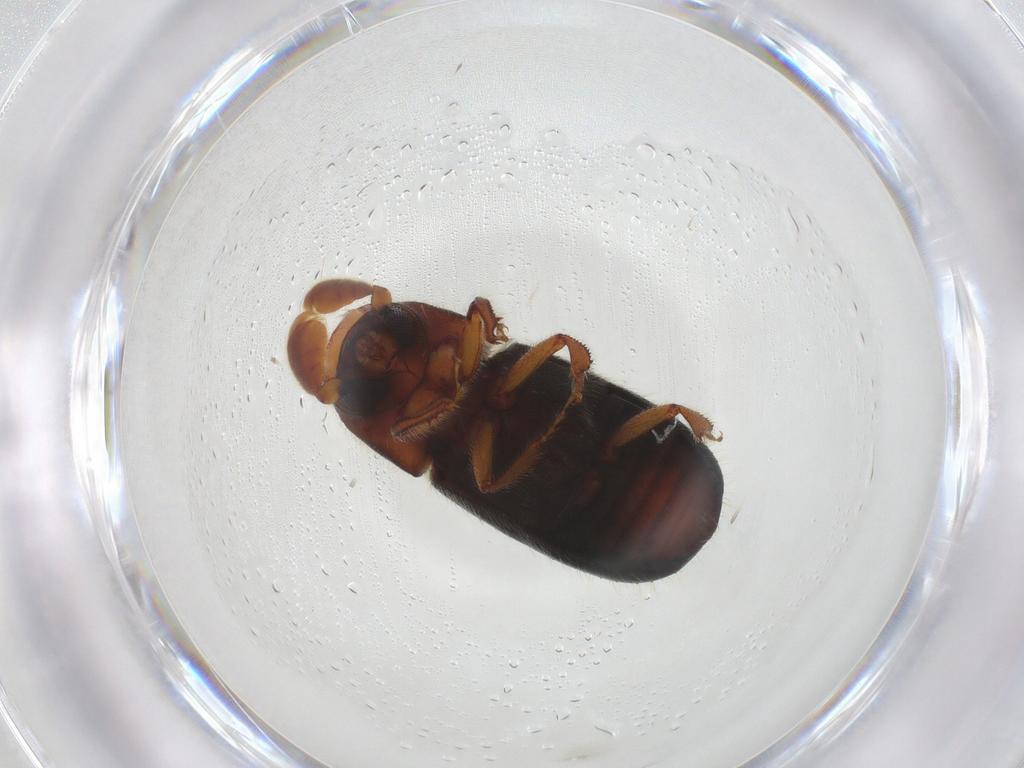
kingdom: Animalia
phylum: Arthropoda
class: Insecta
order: Coleoptera
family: Curculionidae
